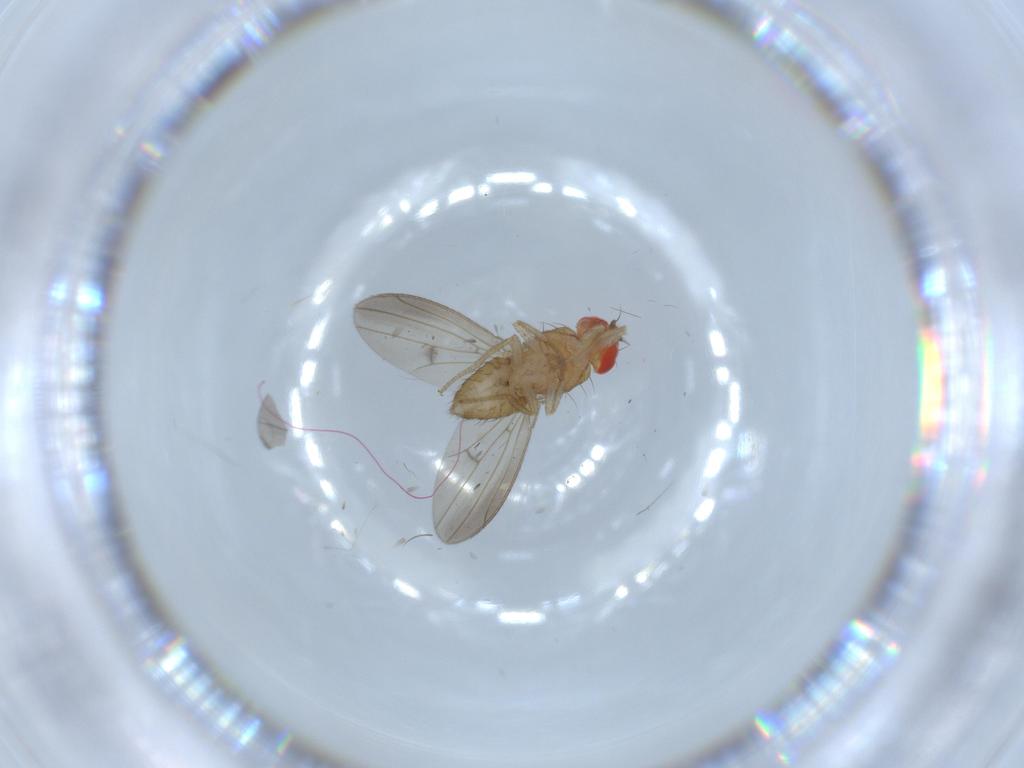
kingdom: Animalia
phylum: Arthropoda
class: Insecta
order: Diptera
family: Drosophilidae
